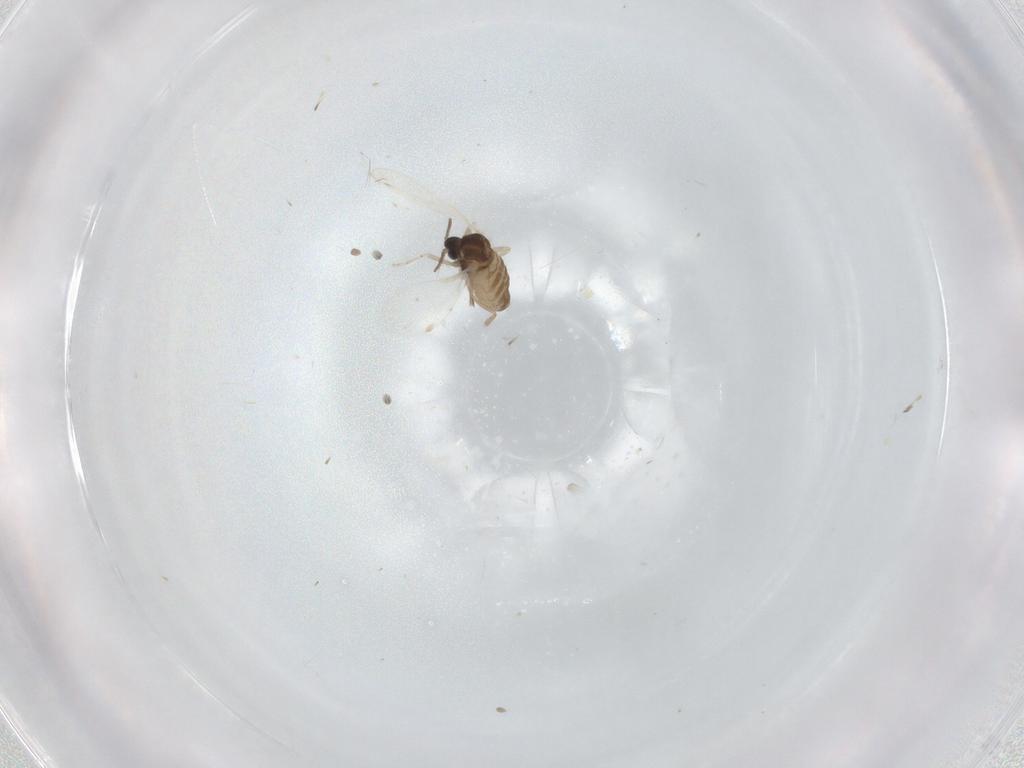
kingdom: Animalia
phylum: Arthropoda
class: Insecta
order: Diptera
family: Cecidomyiidae
